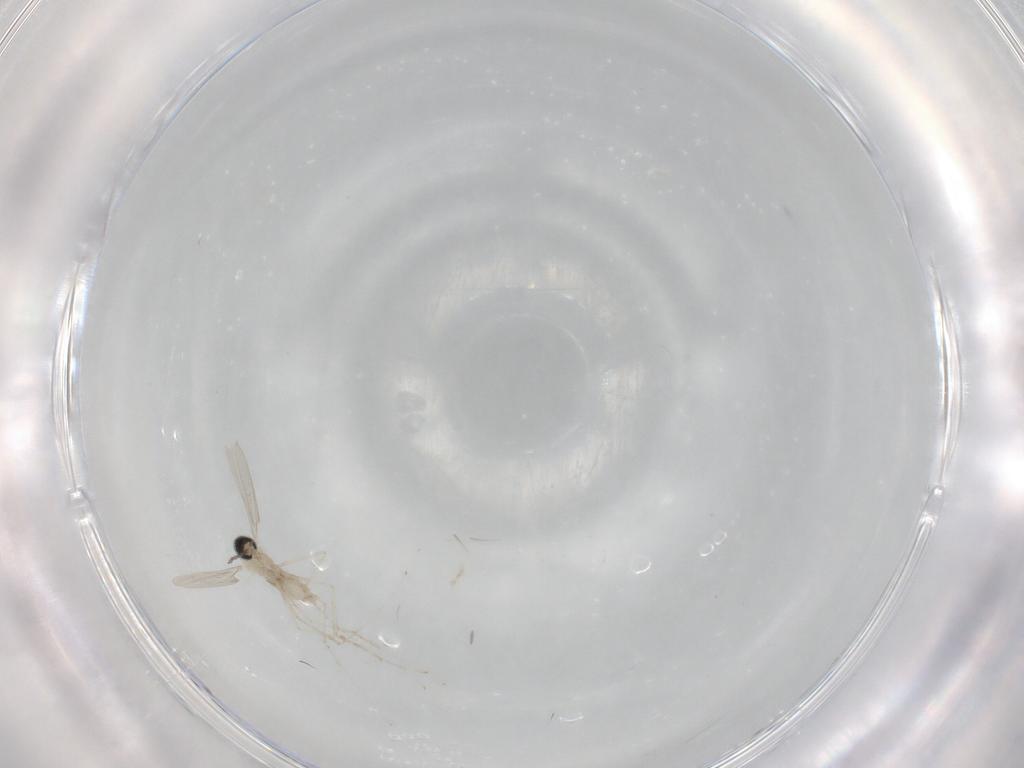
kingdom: Animalia
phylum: Arthropoda
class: Insecta
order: Diptera
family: Cecidomyiidae
